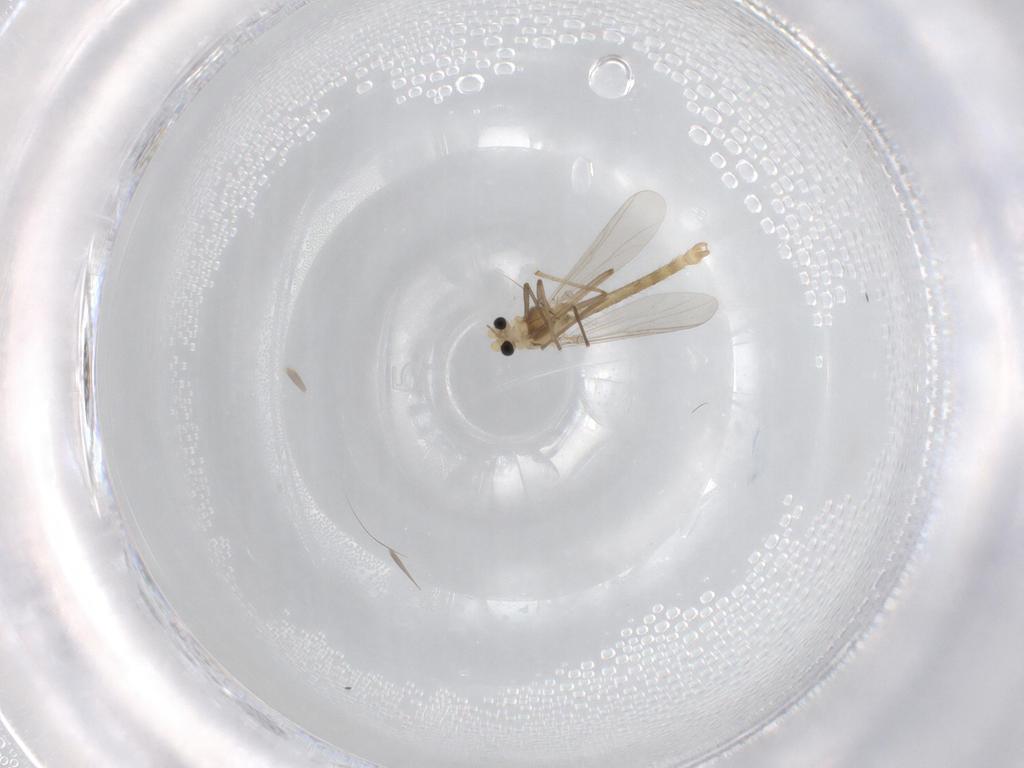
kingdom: Animalia
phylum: Arthropoda
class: Insecta
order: Diptera
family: Chironomidae
